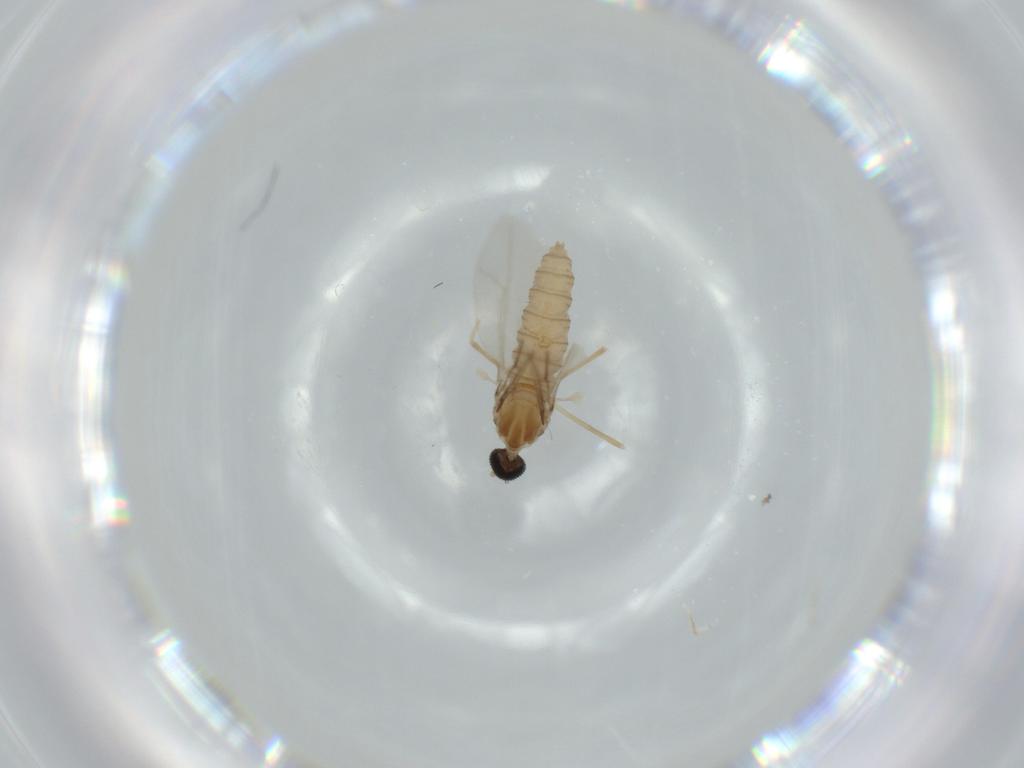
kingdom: Animalia
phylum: Arthropoda
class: Insecta
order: Diptera
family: Cecidomyiidae
